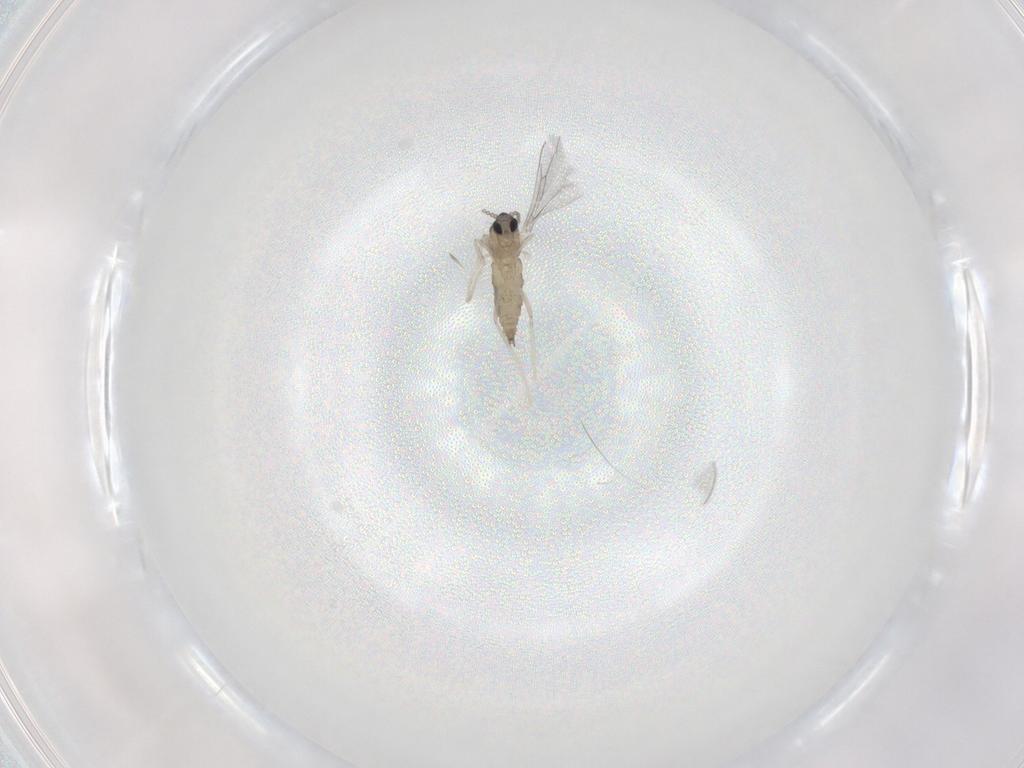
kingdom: Animalia
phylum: Arthropoda
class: Insecta
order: Diptera
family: Cecidomyiidae
